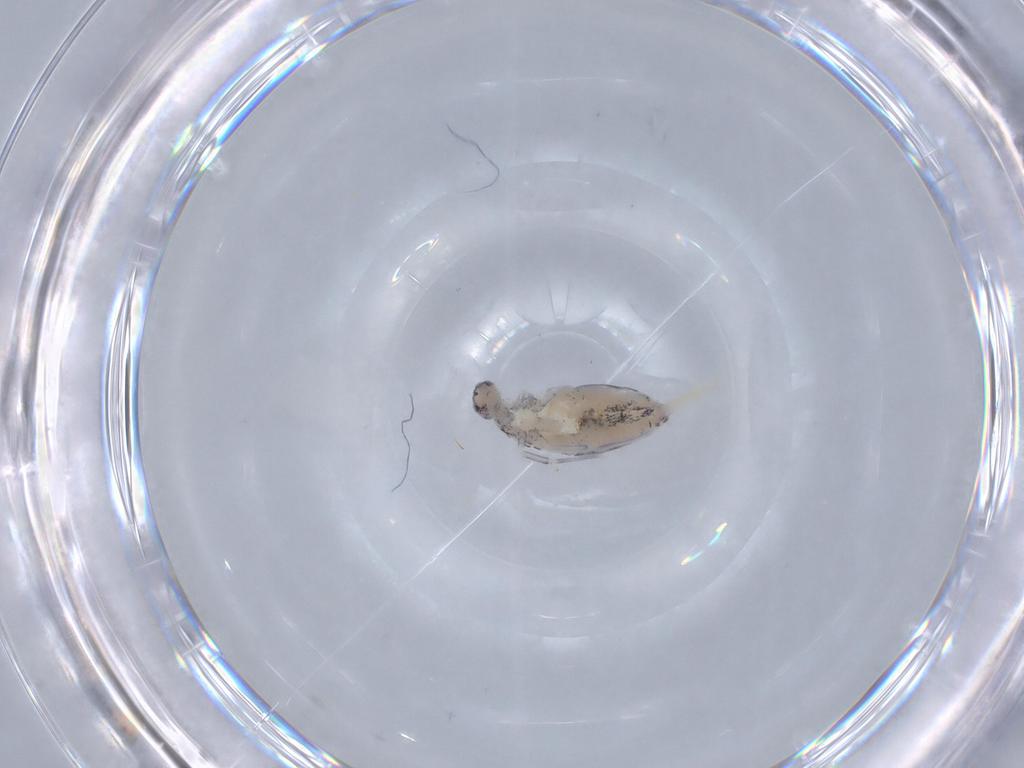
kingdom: Animalia
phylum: Arthropoda
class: Collembola
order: Entomobryomorpha
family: Paronellidae
